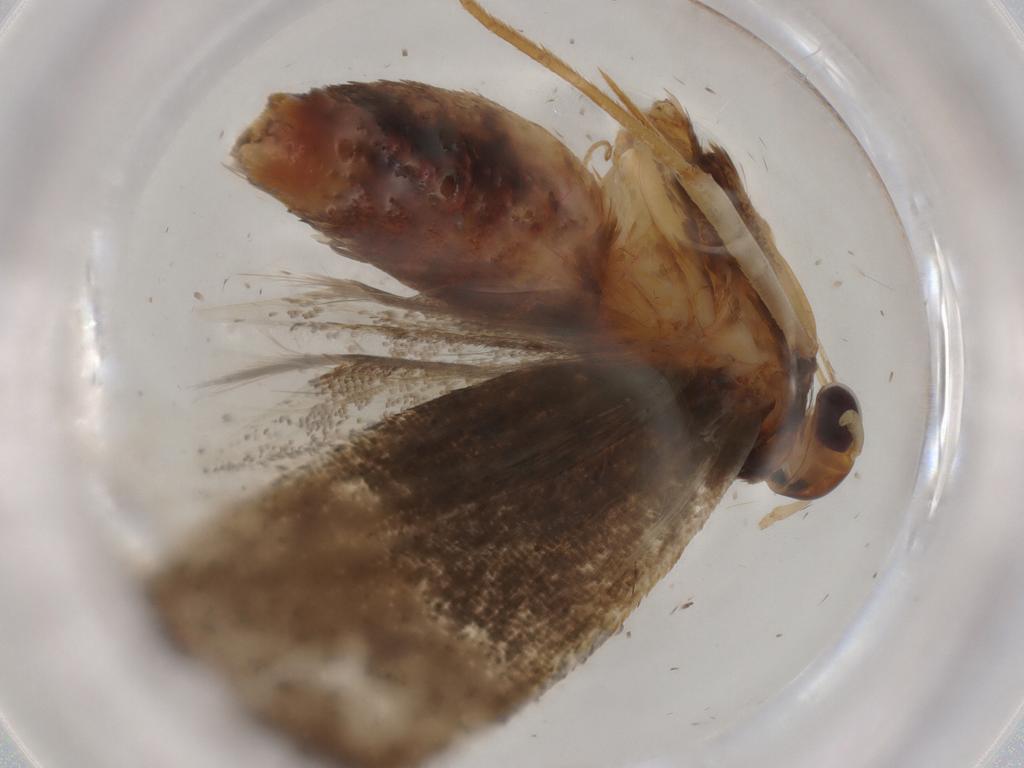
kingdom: Animalia
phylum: Arthropoda
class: Insecta
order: Lepidoptera
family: Lecithoceridae
